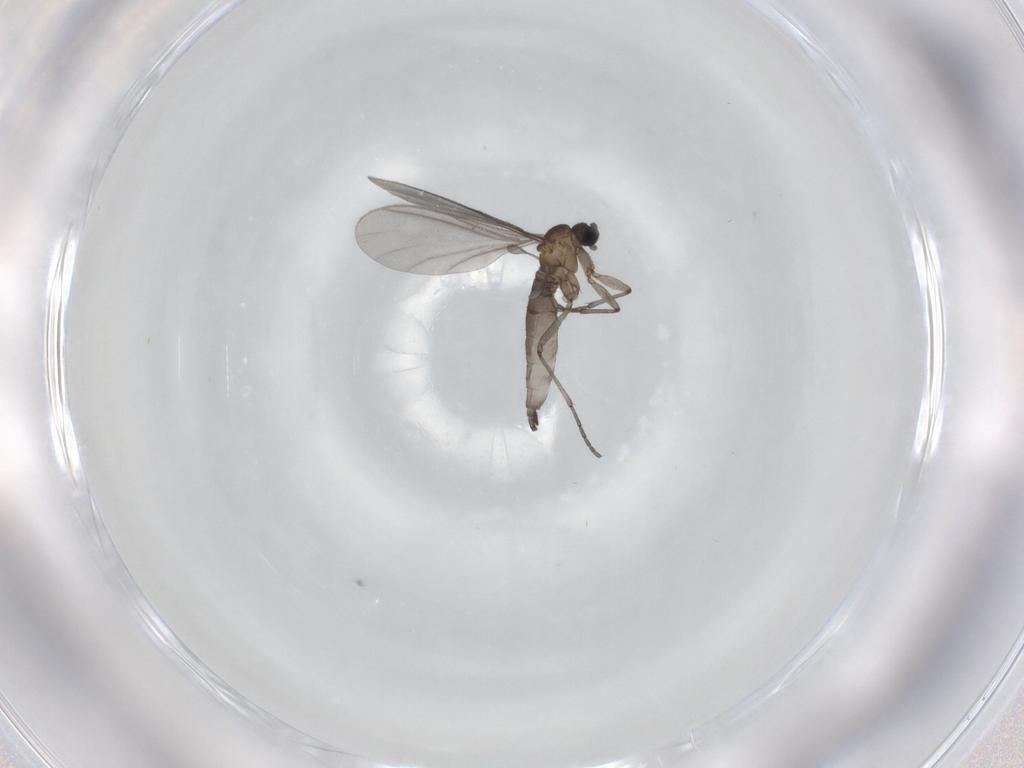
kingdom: Animalia
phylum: Arthropoda
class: Insecta
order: Diptera
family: Sciaridae
